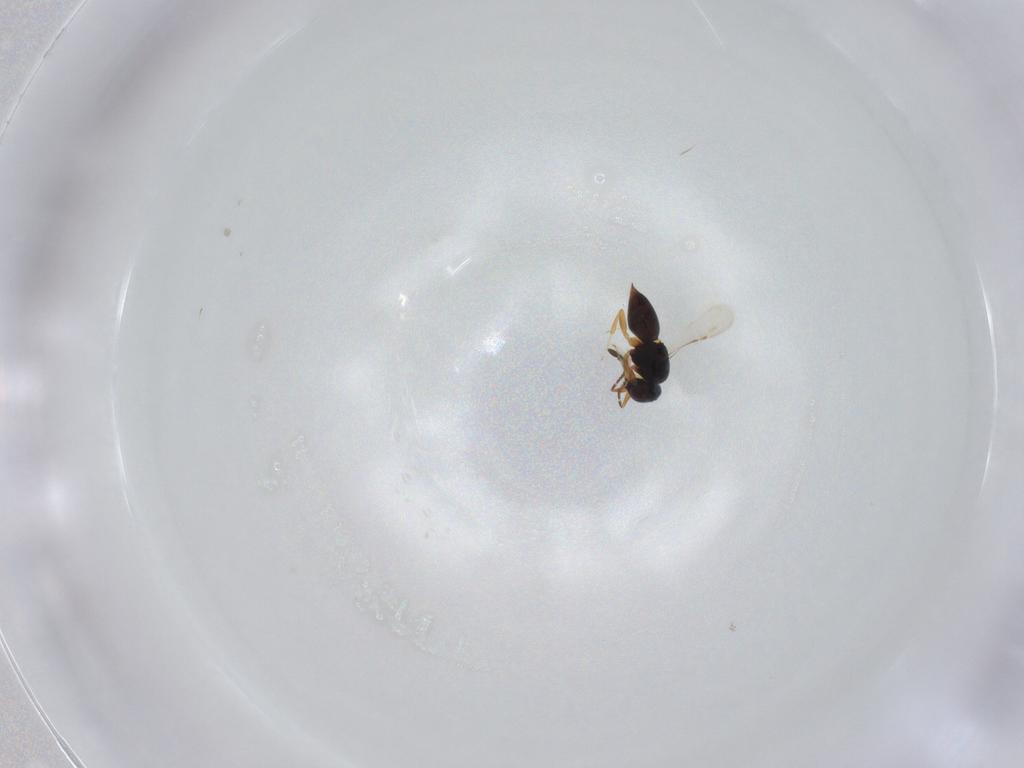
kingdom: Animalia
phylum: Arthropoda
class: Insecta
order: Hymenoptera
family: Ceraphronidae
